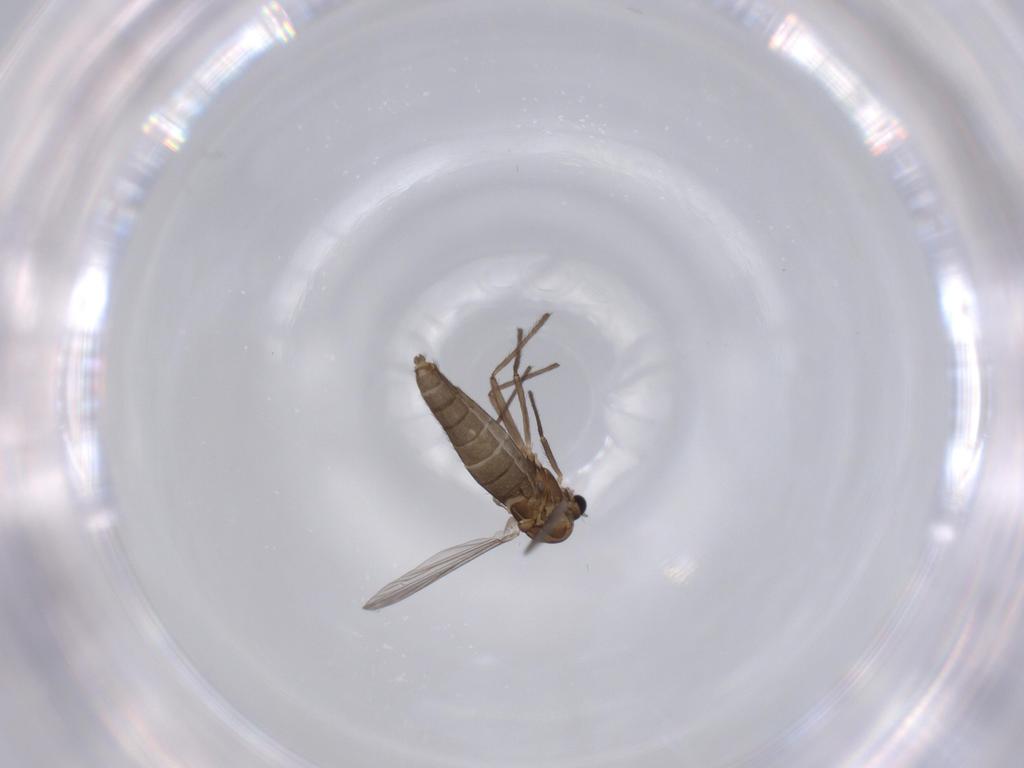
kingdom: Animalia
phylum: Arthropoda
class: Insecta
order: Diptera
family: Chironomidae
